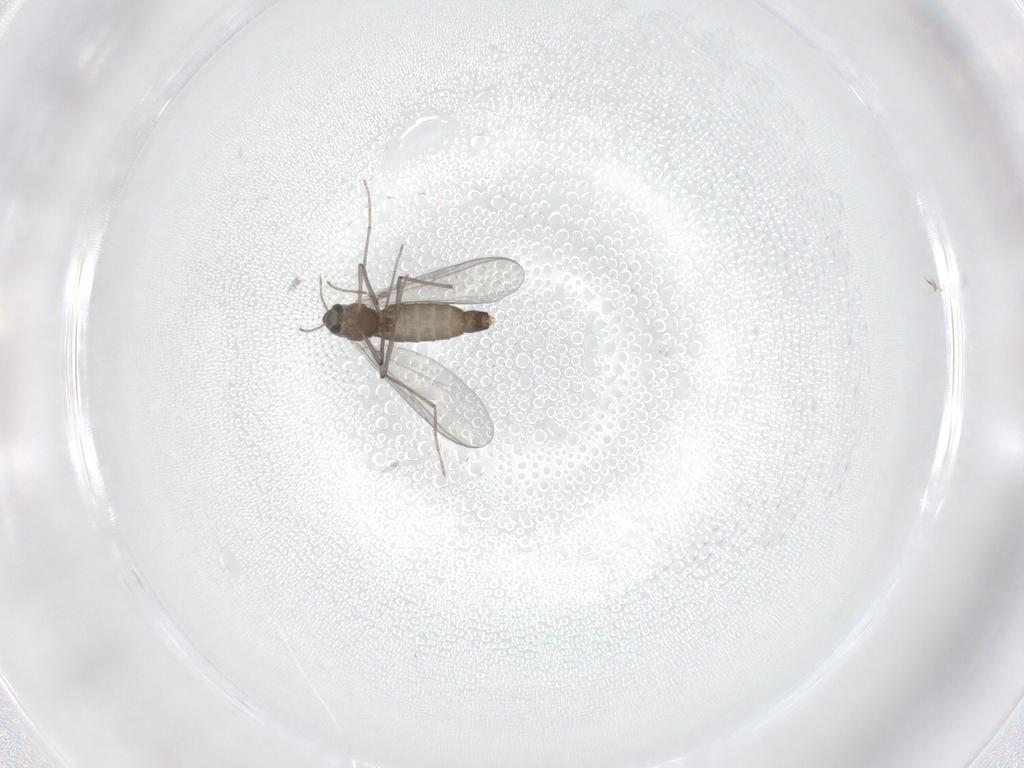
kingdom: Animalia
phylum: Arthropoda
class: Insecta
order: Diptera
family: Chironomidae
